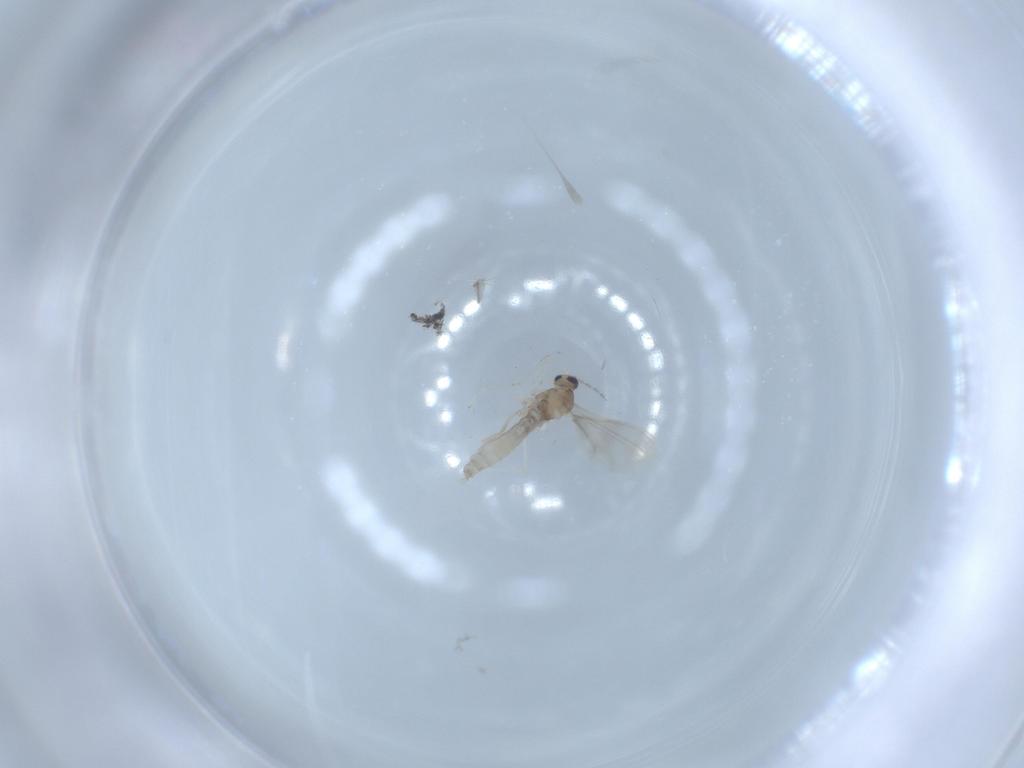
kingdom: Animalia
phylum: Arthropoda
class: Insecta
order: Diptera
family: Cecidomyiidae
